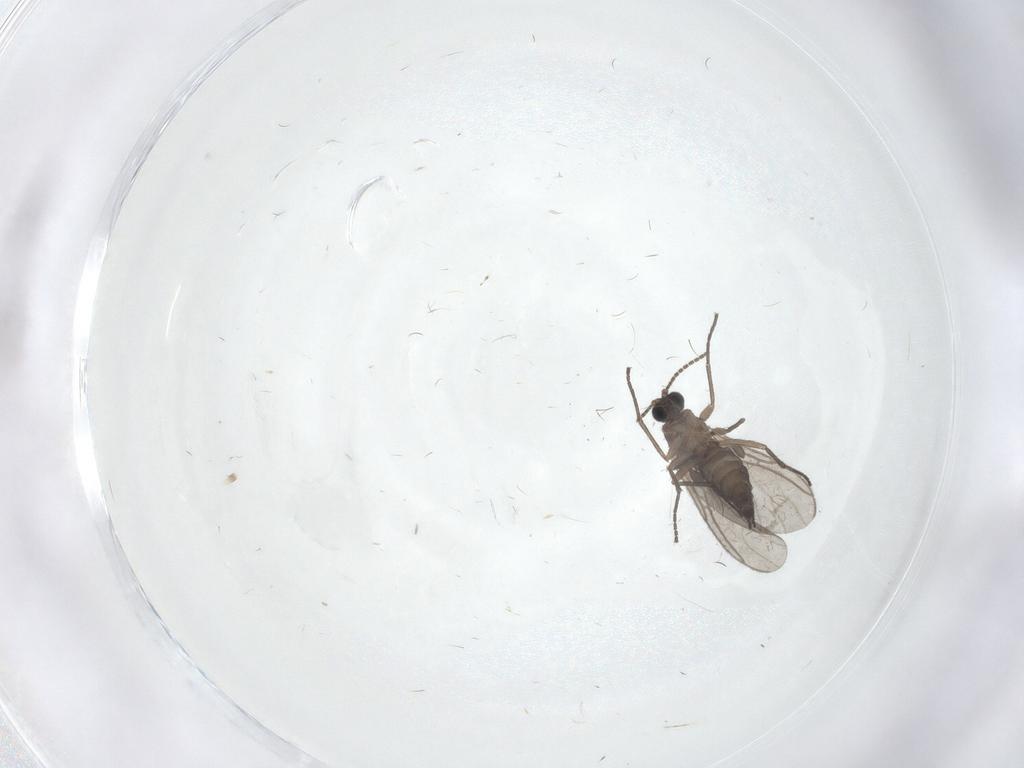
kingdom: Animalia
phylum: Arthropoda
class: Insecta
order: Diptera
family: Sciaridae
